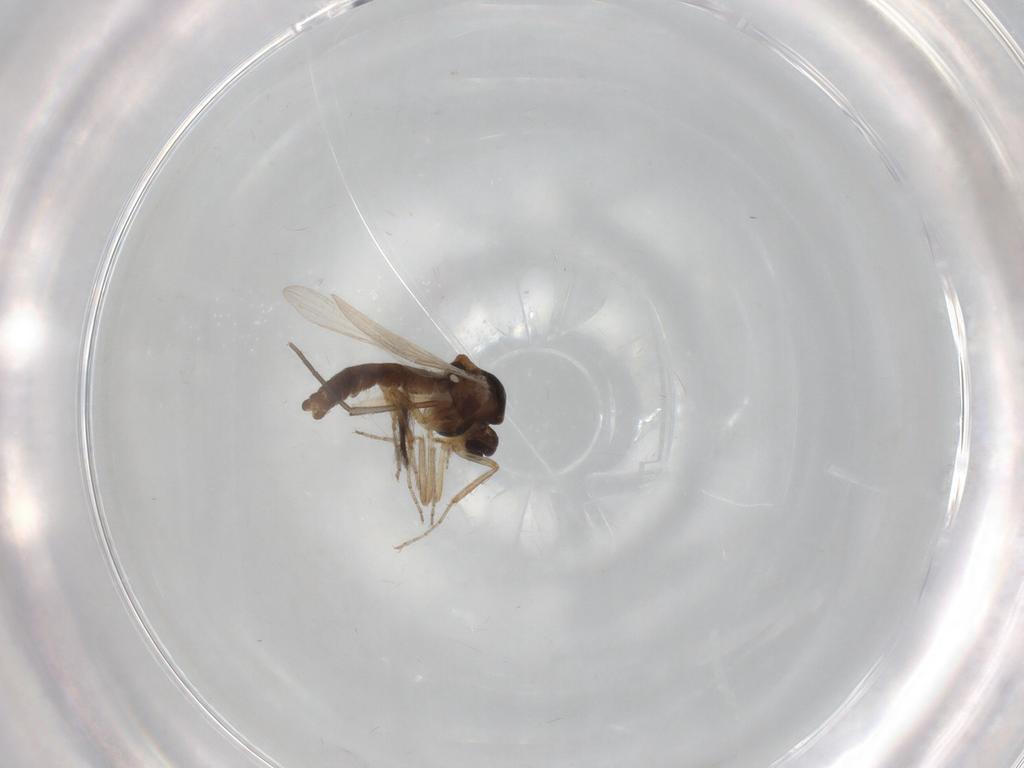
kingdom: Animalia
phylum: Arthropoda
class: Insecta
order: Diptera
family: Ceratopogonidae
